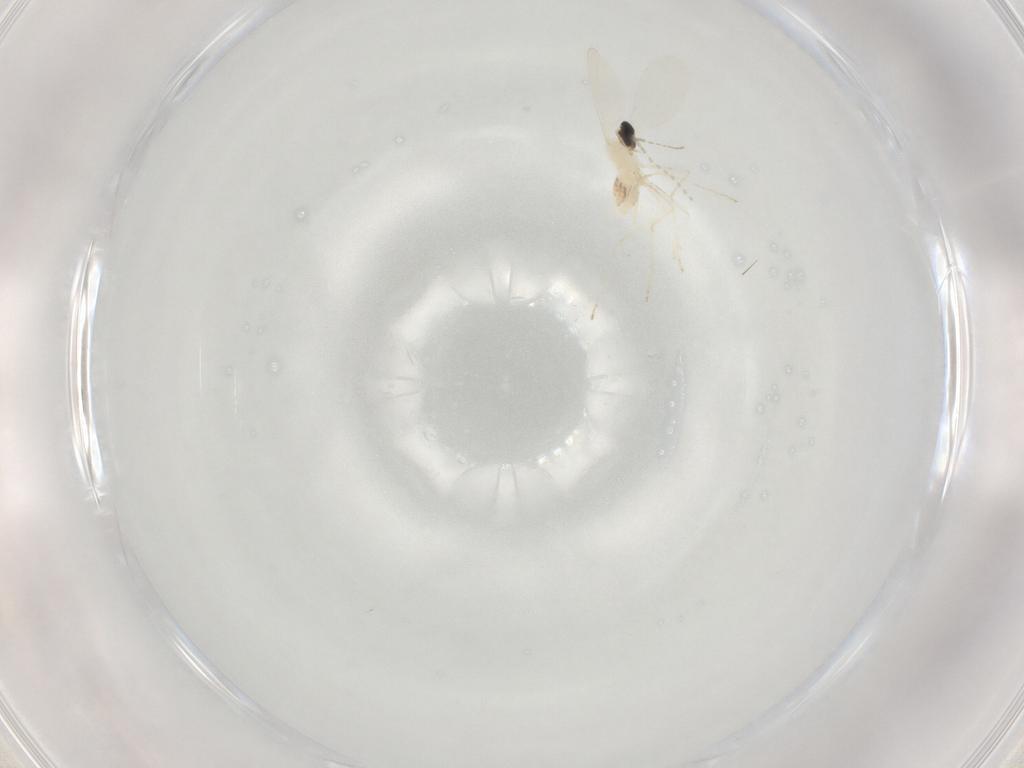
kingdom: Animalia
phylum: Arthropoda
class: Insecta
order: Diptera
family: Cecidomyiidae
